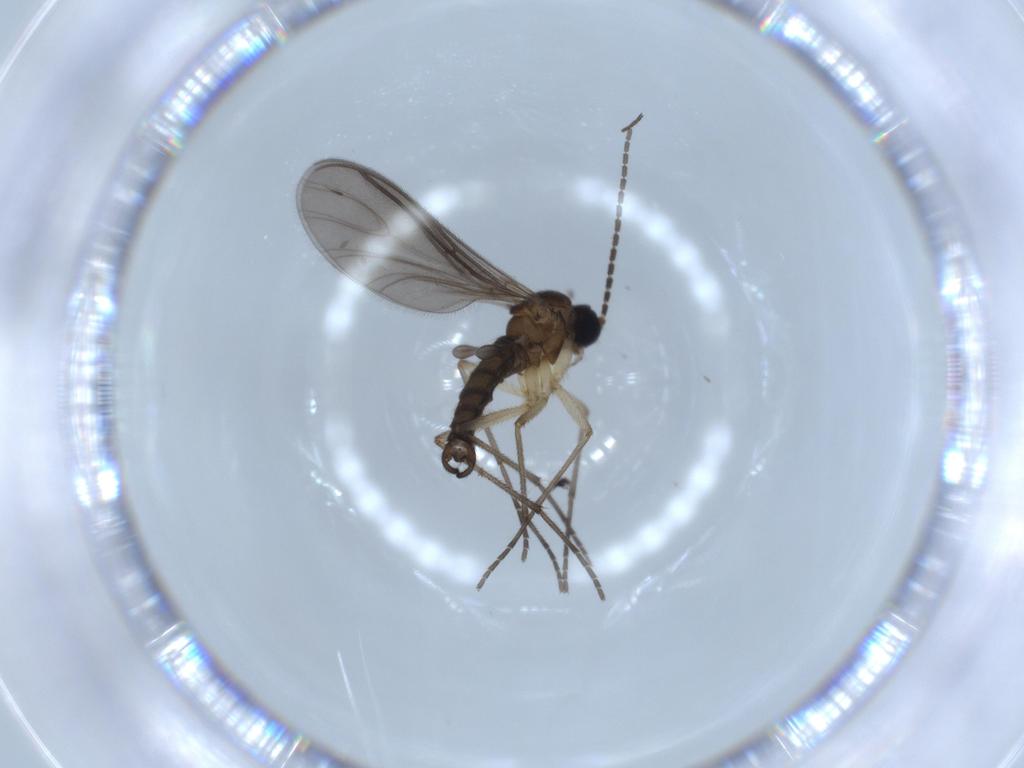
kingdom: Animalia
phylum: Arthropoda
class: Insecta
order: Diptera
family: Sciaridae
